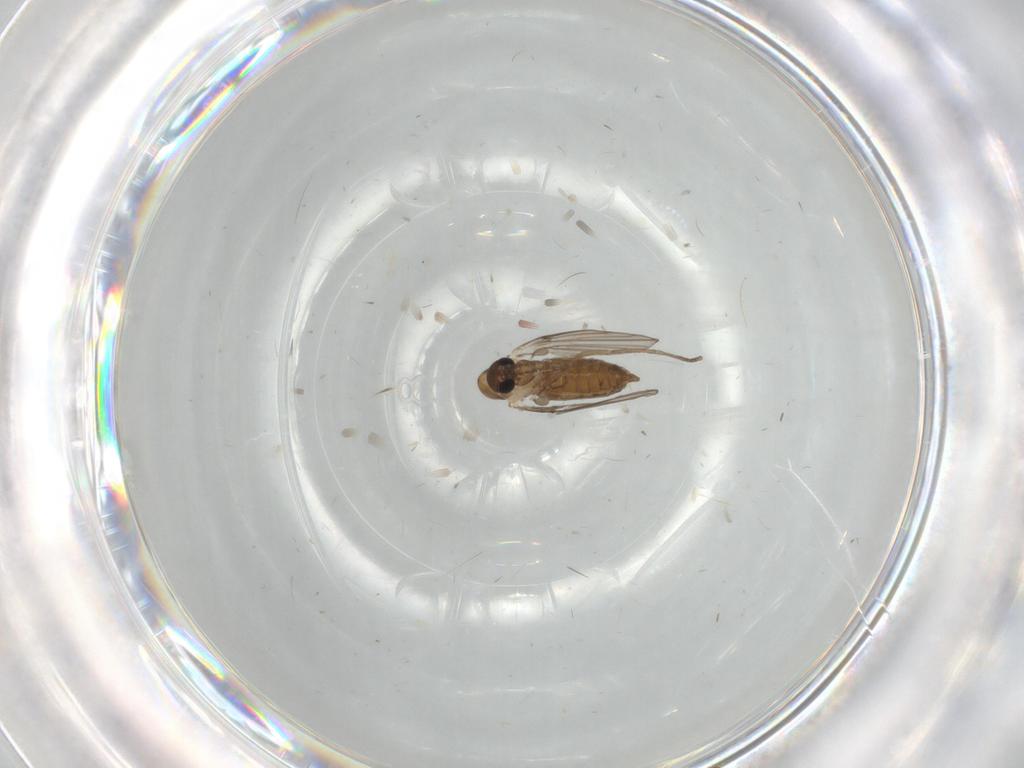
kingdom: Animalia
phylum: Arthropoda
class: Insecta
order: Diptera
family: Psychodidae
